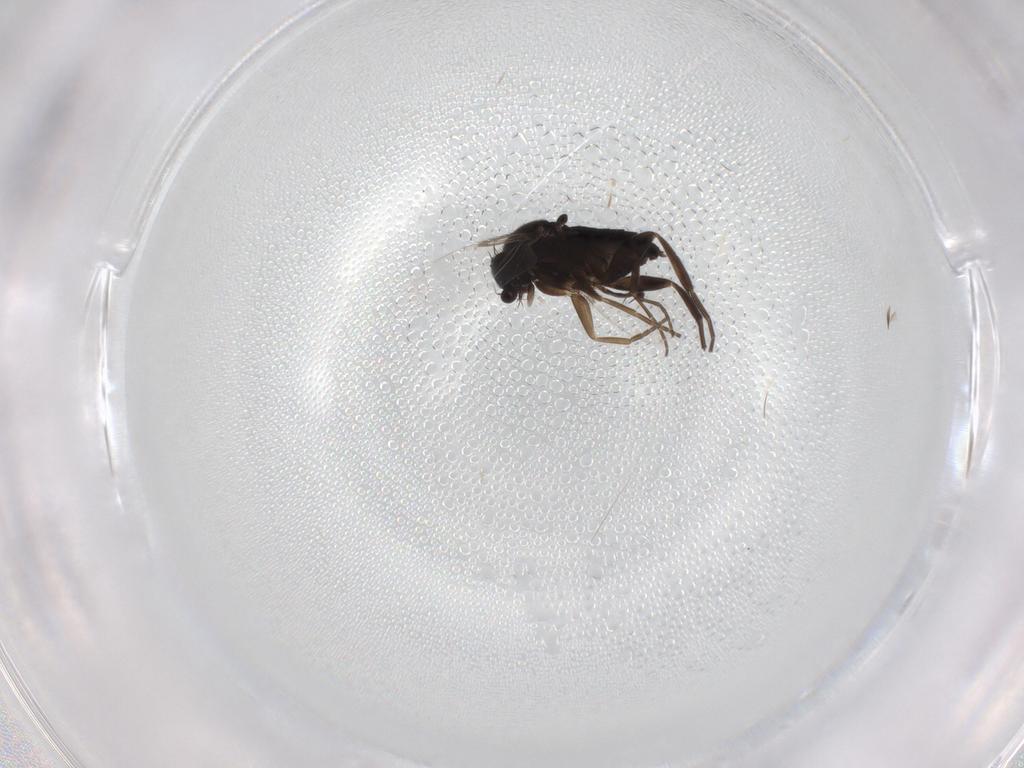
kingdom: Animalia
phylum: Arthropoda
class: Insecta
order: Diptera
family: Phoridae
